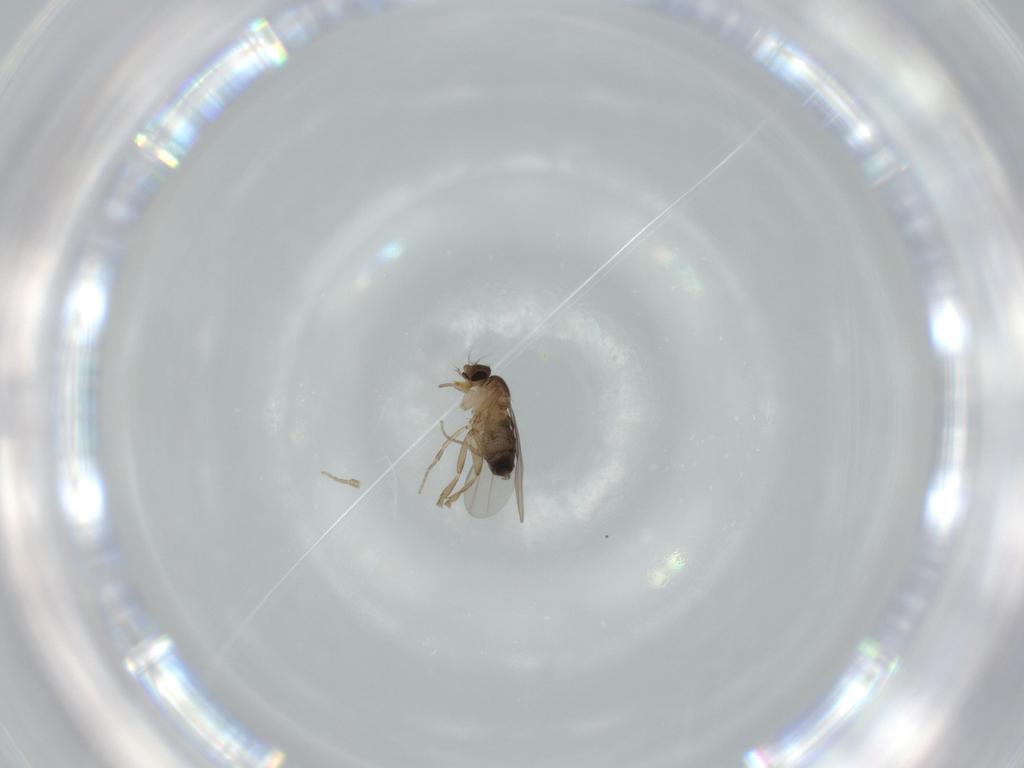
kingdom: Animalia
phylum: Arthropoda
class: Insecta
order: Diptera
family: Phoridae
